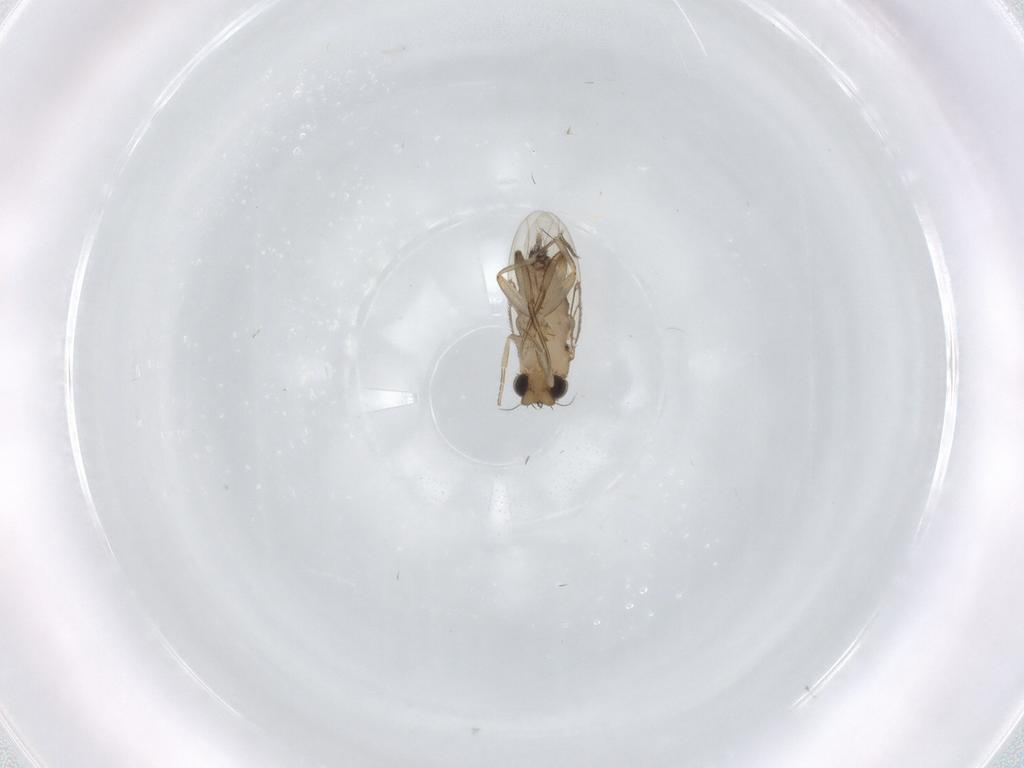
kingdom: Animalia
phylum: Arthropoda
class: Insecta
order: Diptera
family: Phoridae
